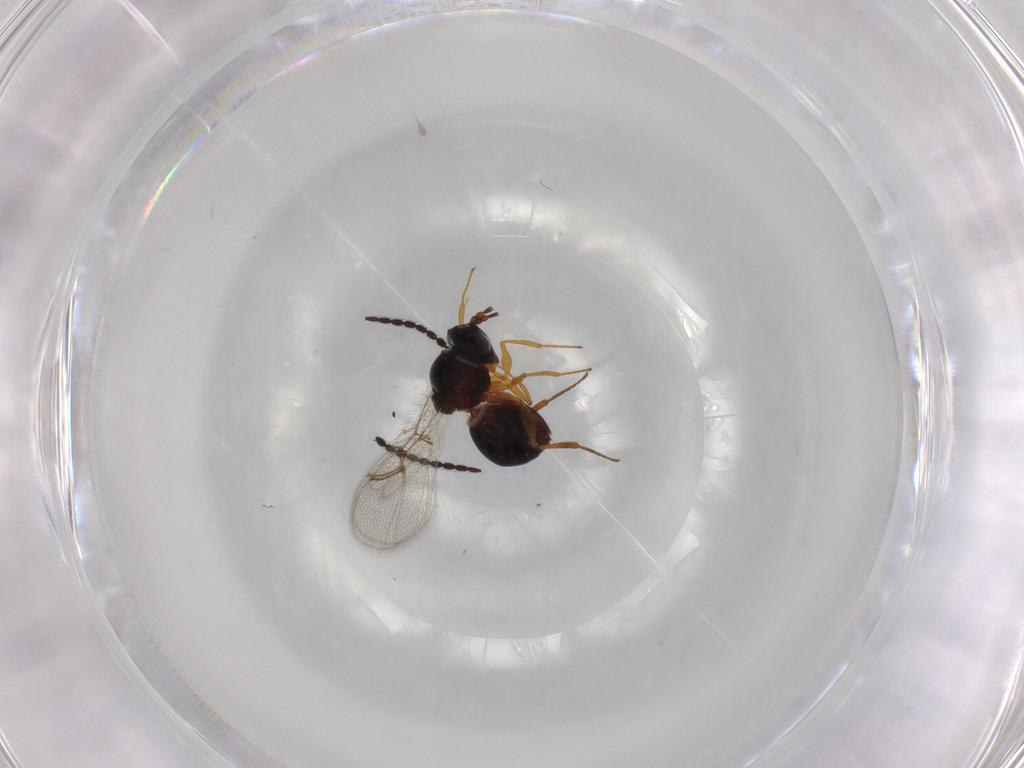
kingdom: Animalia
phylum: Arthropoda
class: Insecta
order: Hymenoptera
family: Figitidae
